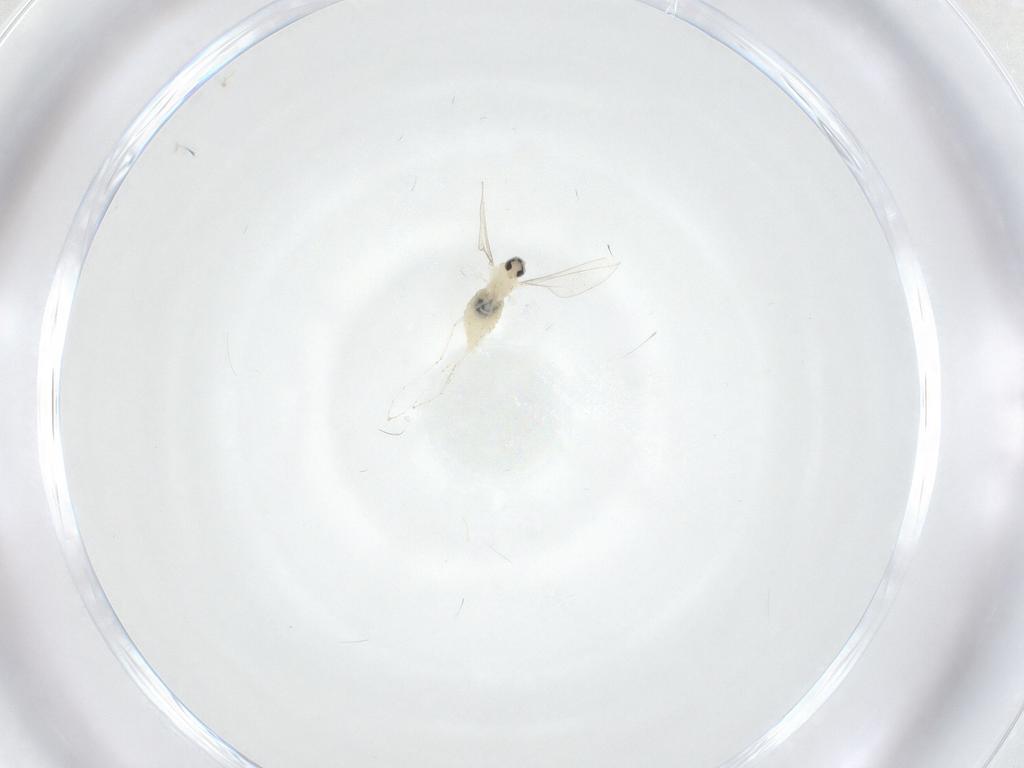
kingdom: Animalia
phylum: Arthropoda
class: Insecta
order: Diptera
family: Cecidomyiidae
